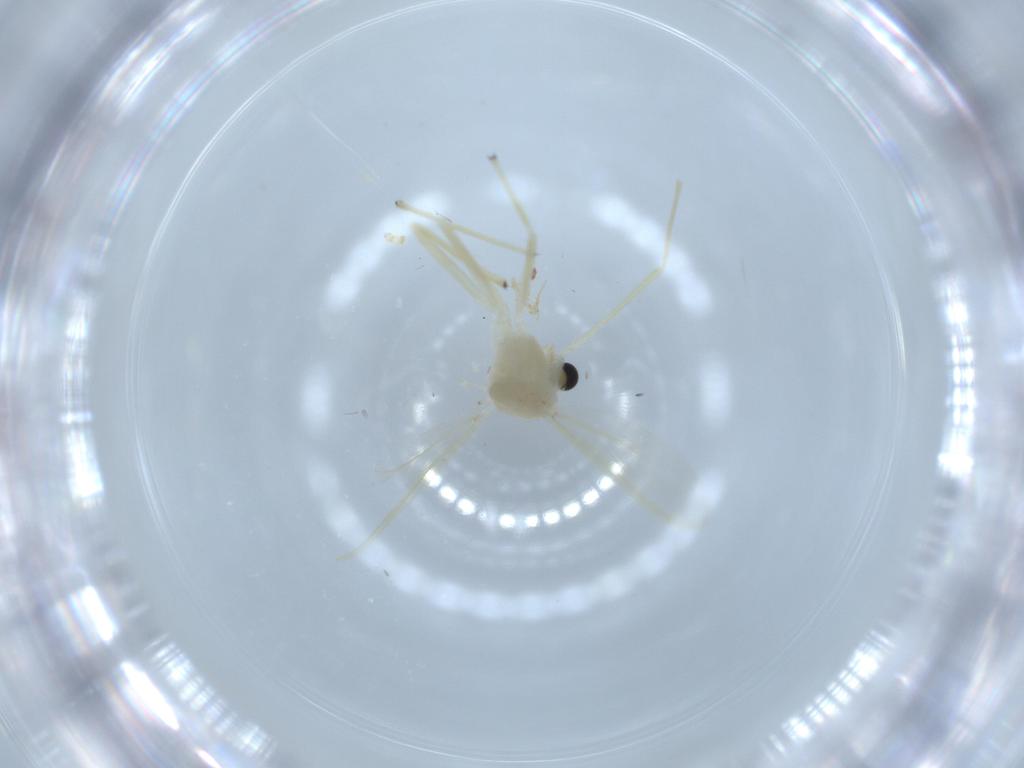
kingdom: Animalia
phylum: Arthropoda
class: Insecta
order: Diptera
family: Chironomidae
